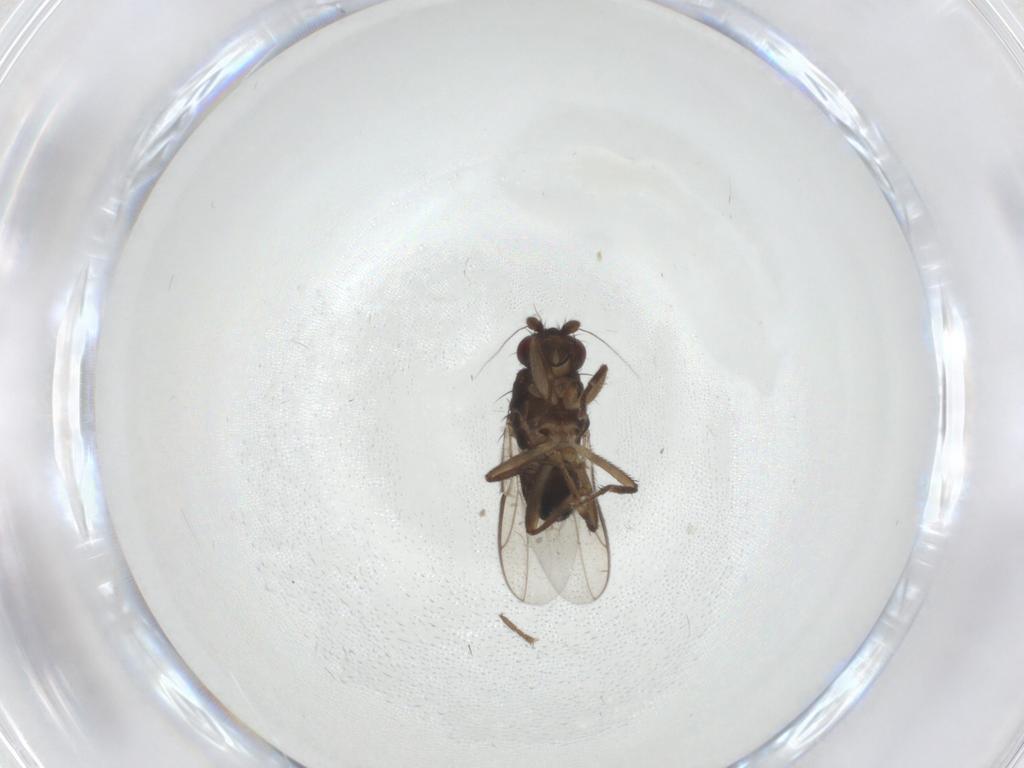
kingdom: Animalia
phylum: Arthropoda
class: Insecta
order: Diptera
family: Sphaeroceridae
